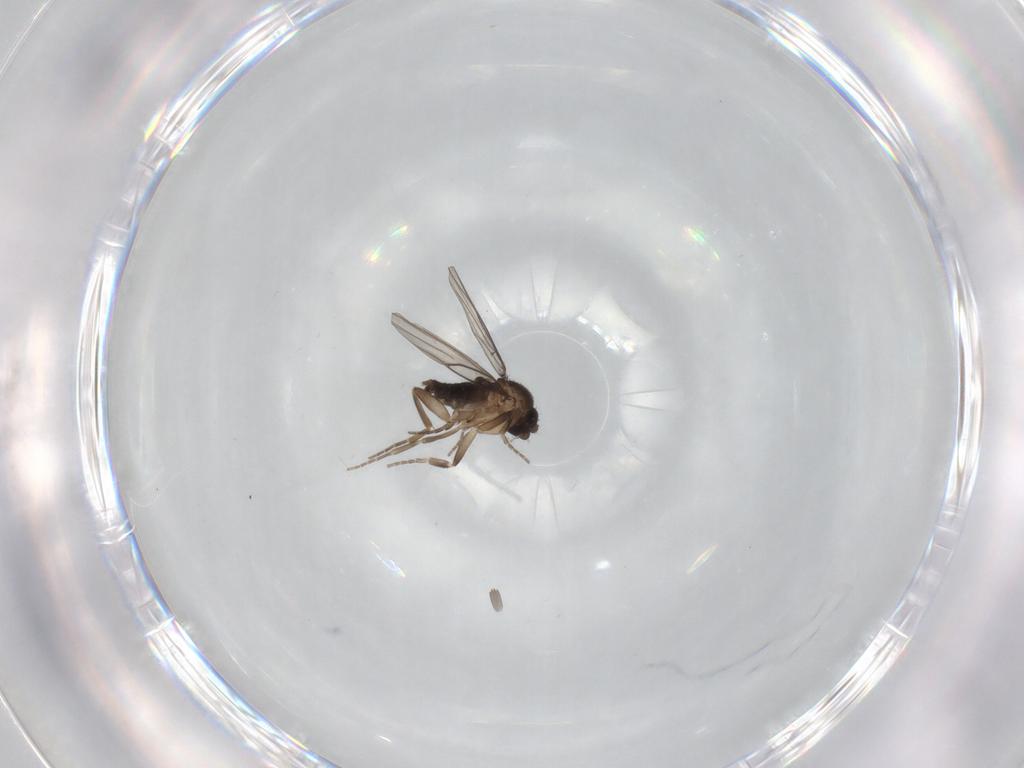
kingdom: Animalia
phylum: Arthropoda
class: Insecta
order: Diptera
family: Phoridae
